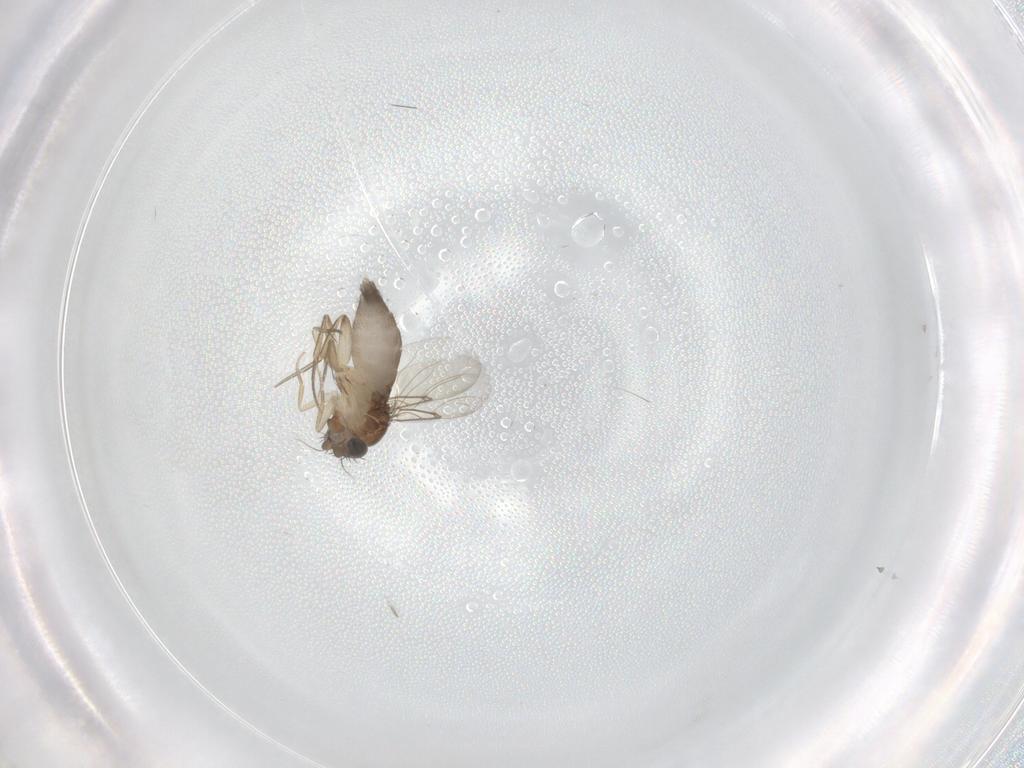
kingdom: Animalia
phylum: Arthropoda
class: Insecta
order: Diptera
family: Phoridae
